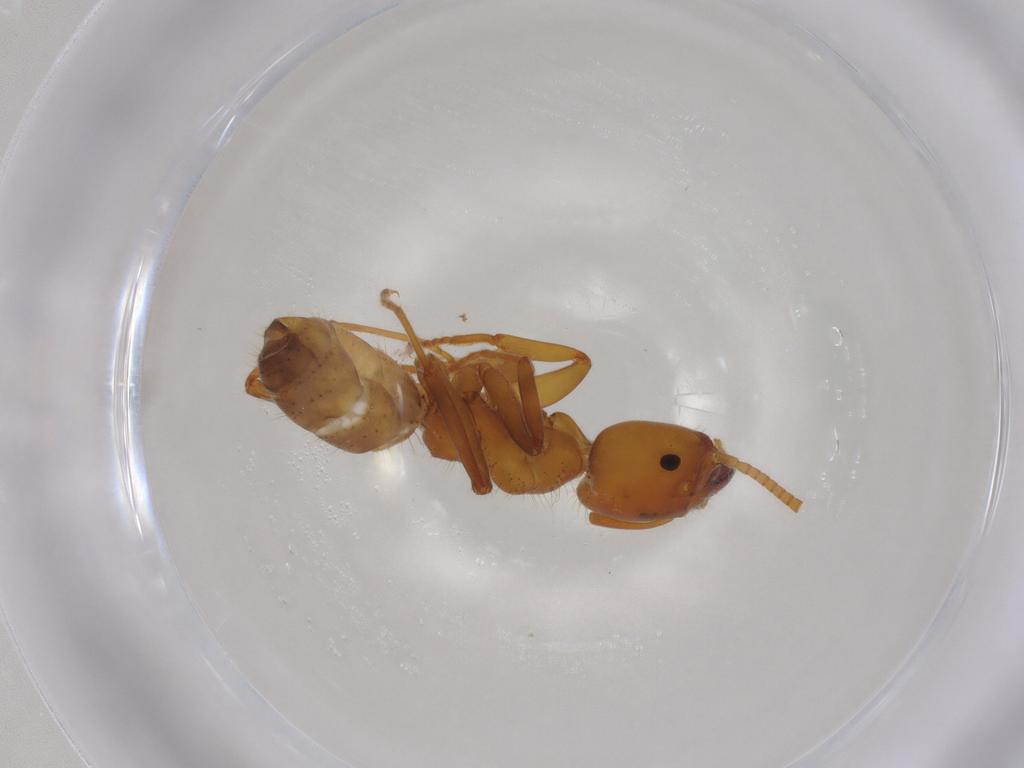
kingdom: Animalia
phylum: Arthropoda
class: Insecta
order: Hymenoptera
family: Formicidae
